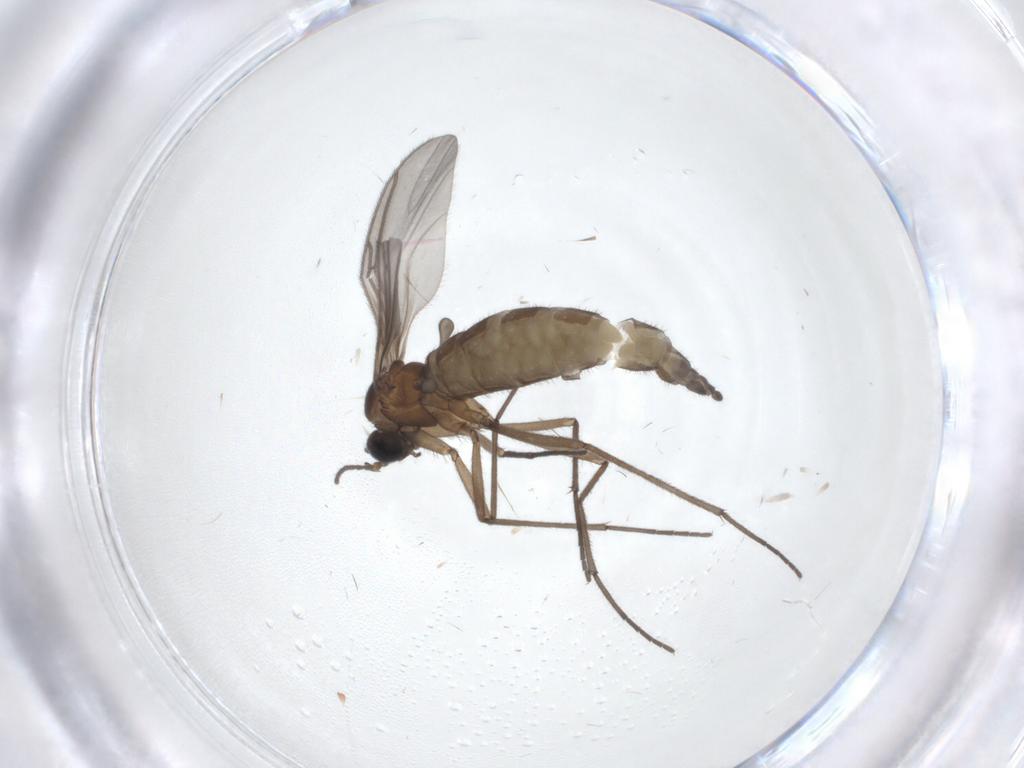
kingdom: Animalia
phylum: Arthropoda
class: Insecta
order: Diptera
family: Sciaridae
